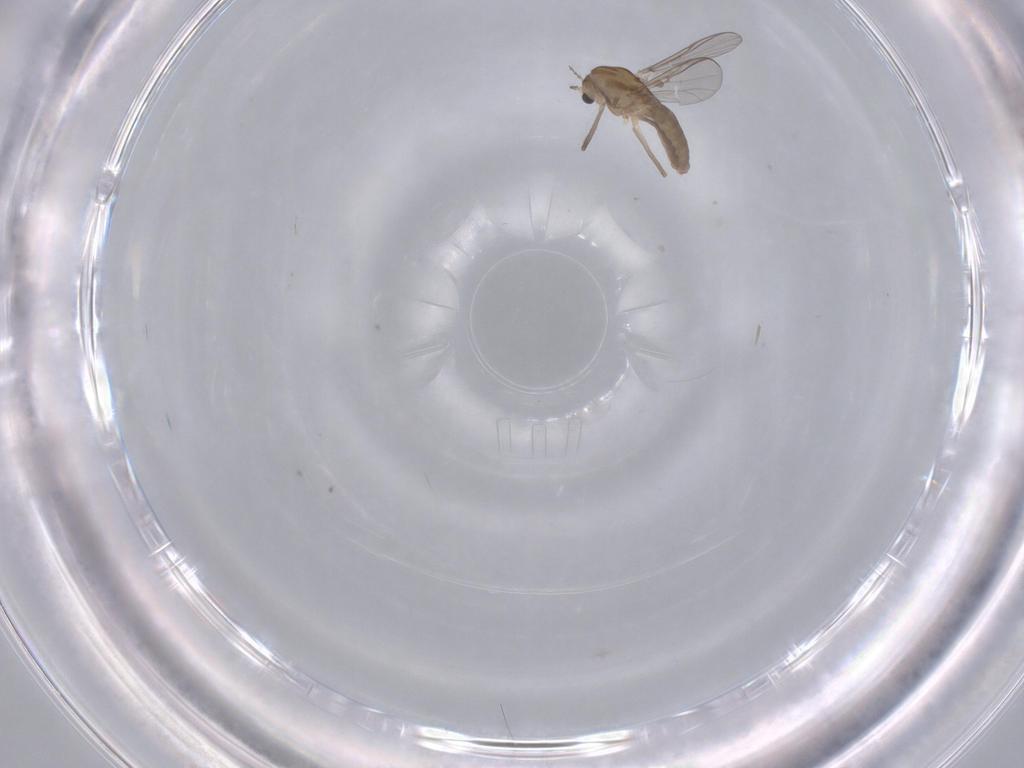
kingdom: Animalia
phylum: Arthropoda
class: Insecta
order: Diptera
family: Chironomidae
